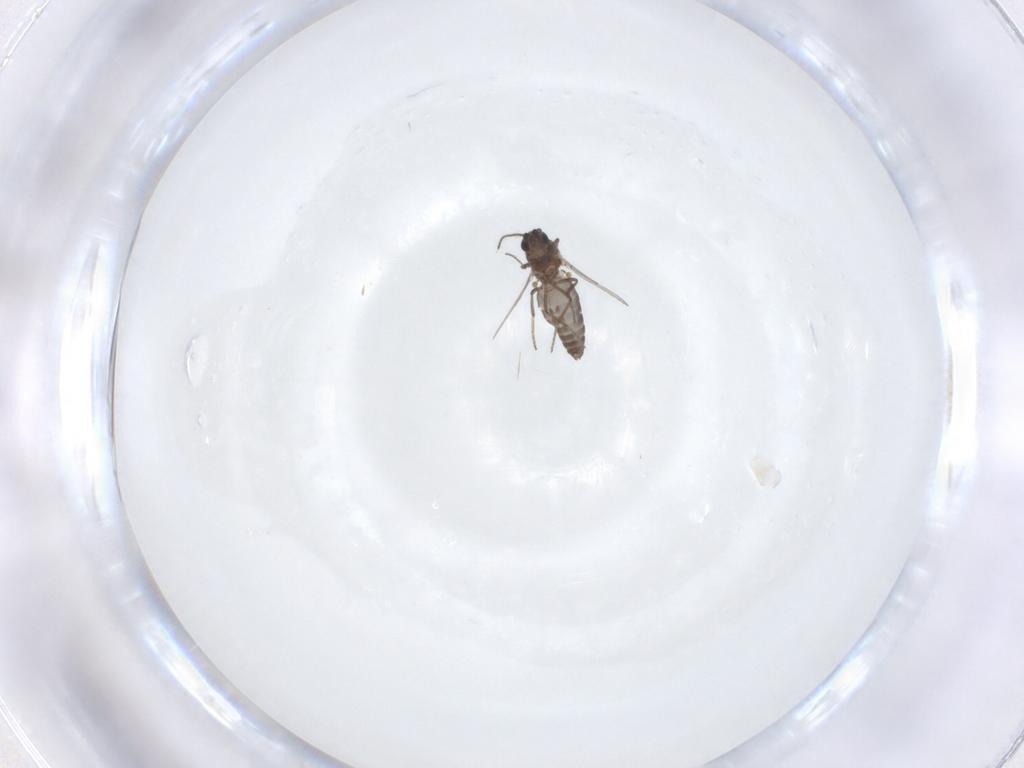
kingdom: Animalia
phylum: Arthropoda
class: Insecta
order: Diptera
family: Ceratopogonidae
